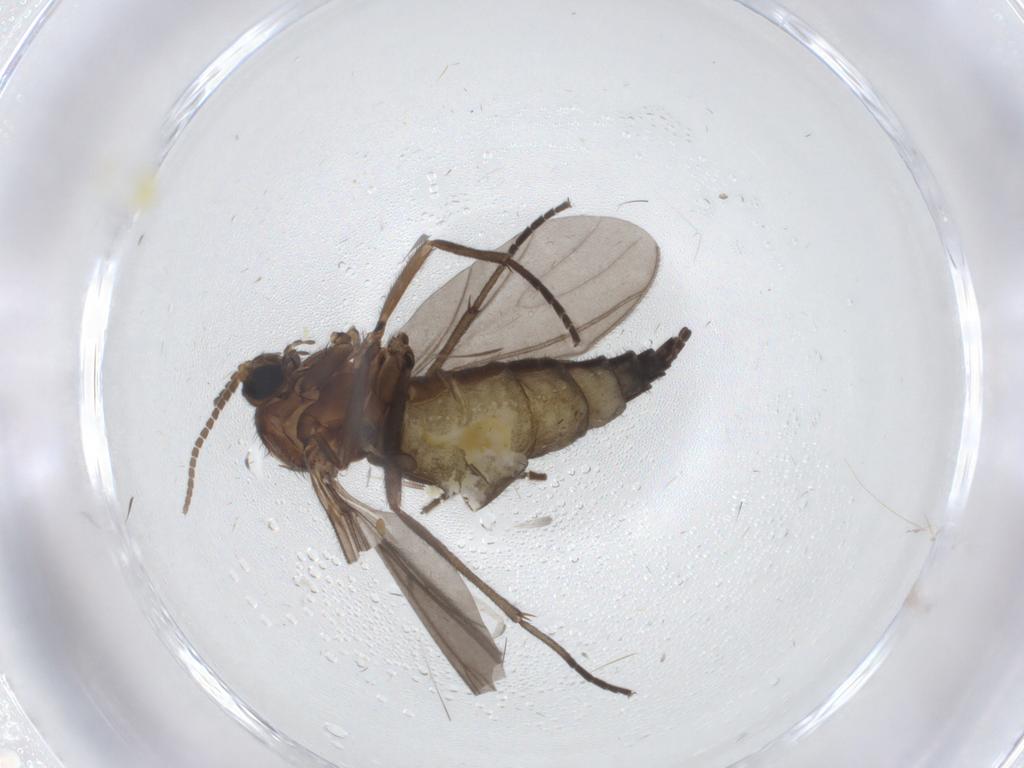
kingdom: Animalia
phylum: Arthropoda
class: Insecta
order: Diptera
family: Sciaridae
